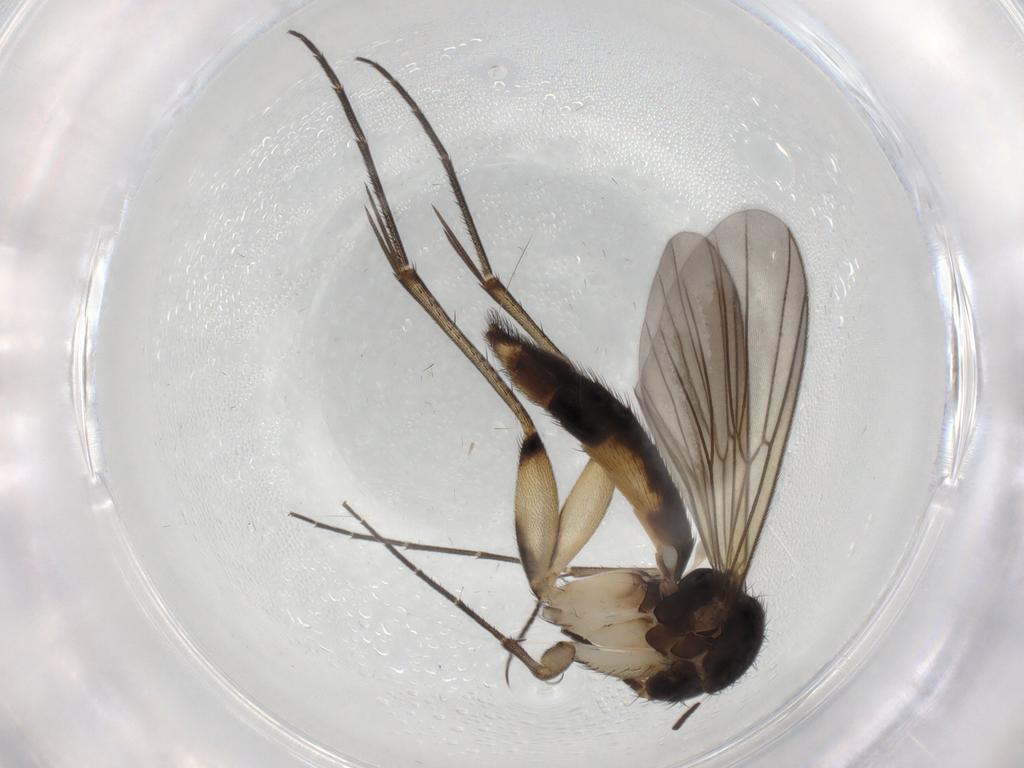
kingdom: Animalia
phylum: Arthropoda
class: Insecta
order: Diptera
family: Mycetophilidae
